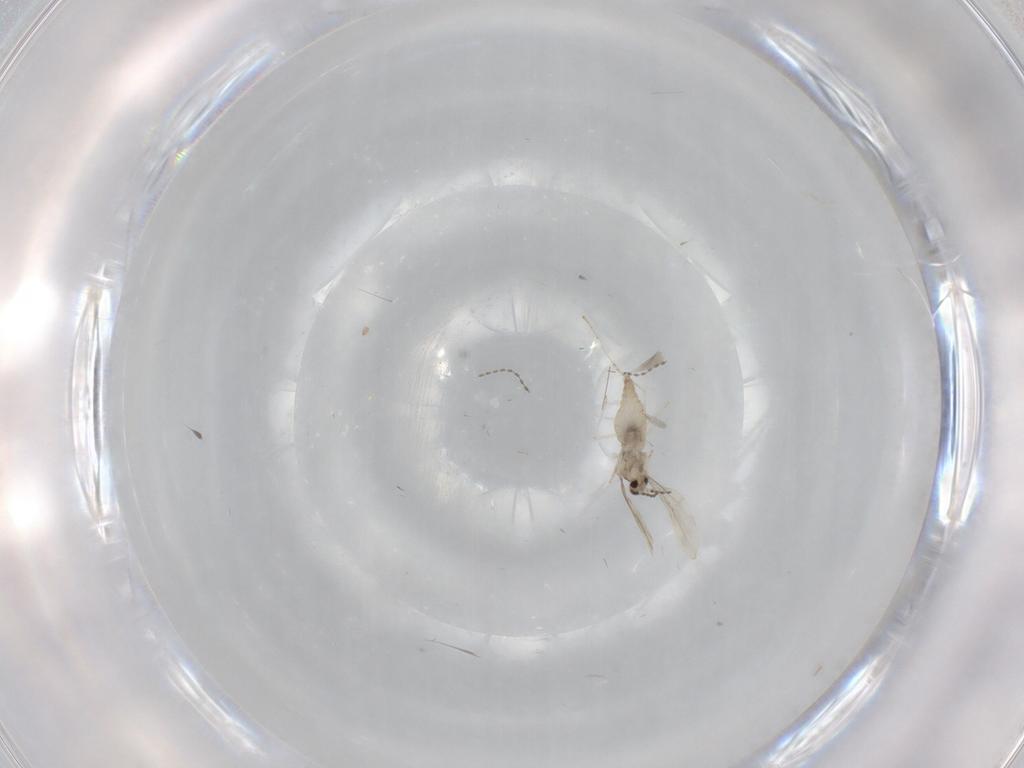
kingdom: Animalia
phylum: Arthropoda
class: Insecta
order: Diptera
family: Cecidomyiidae
